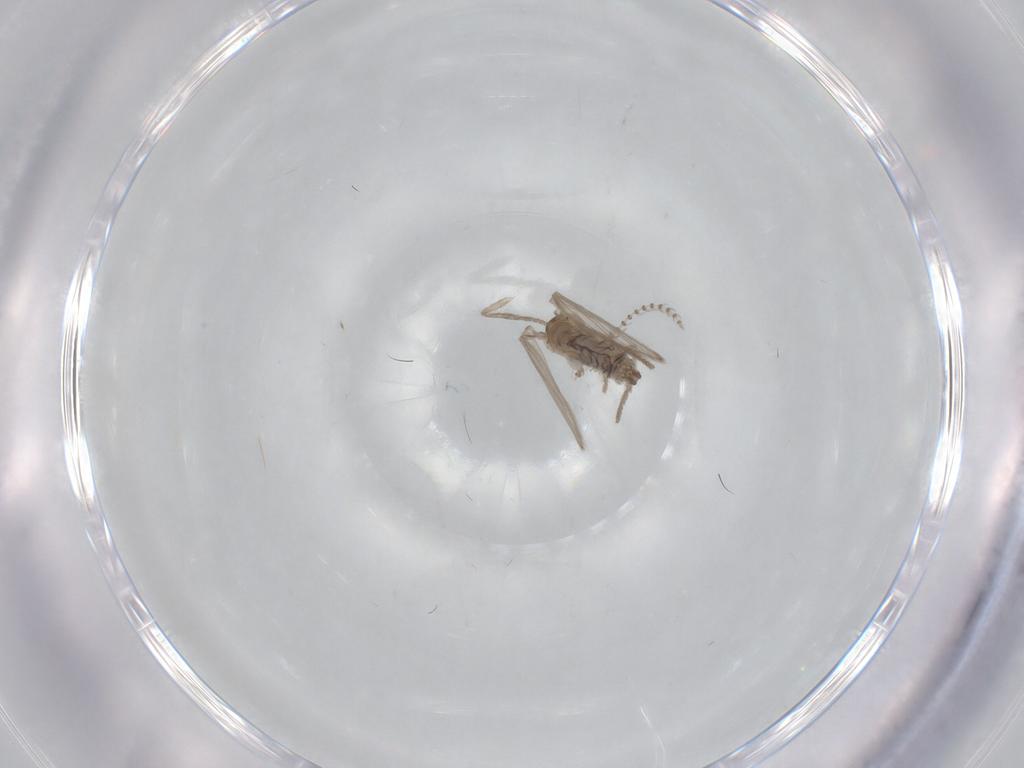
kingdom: Animalia
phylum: Arthropoda
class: Insecta
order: Diptera
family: Psychodidae
